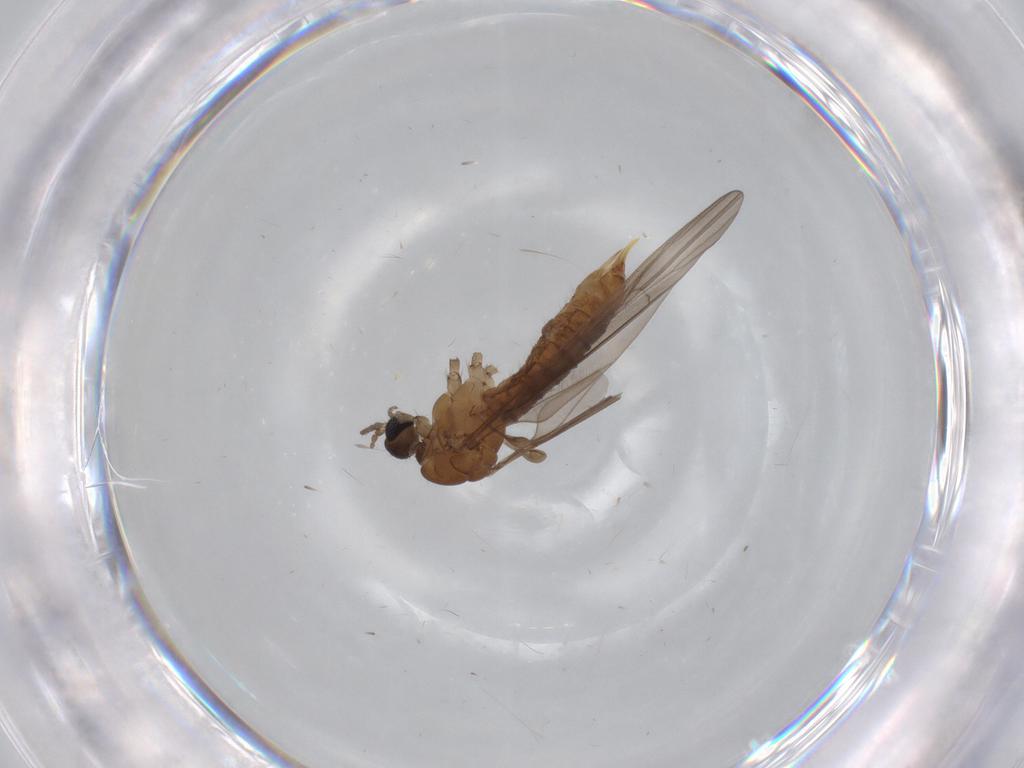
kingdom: Animalia
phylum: Arthropoda
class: Insecta
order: Diptera
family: Limoniidae
